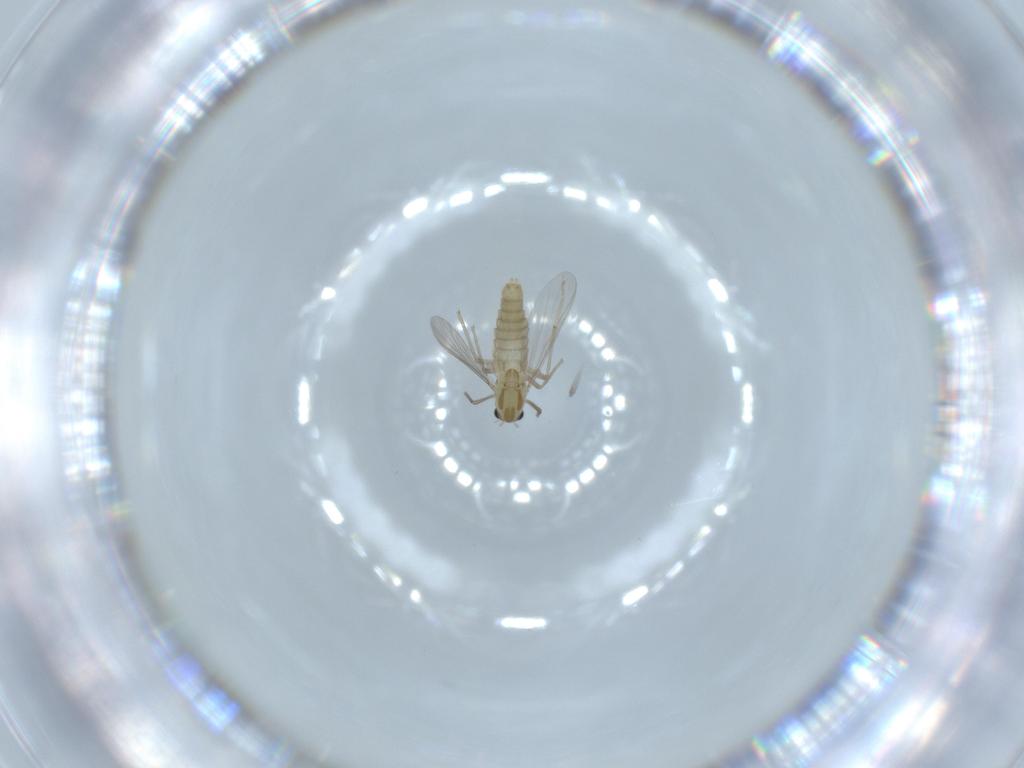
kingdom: Animalia
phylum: Arthropoda
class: Insecta
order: Diptera
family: Chironomidae
